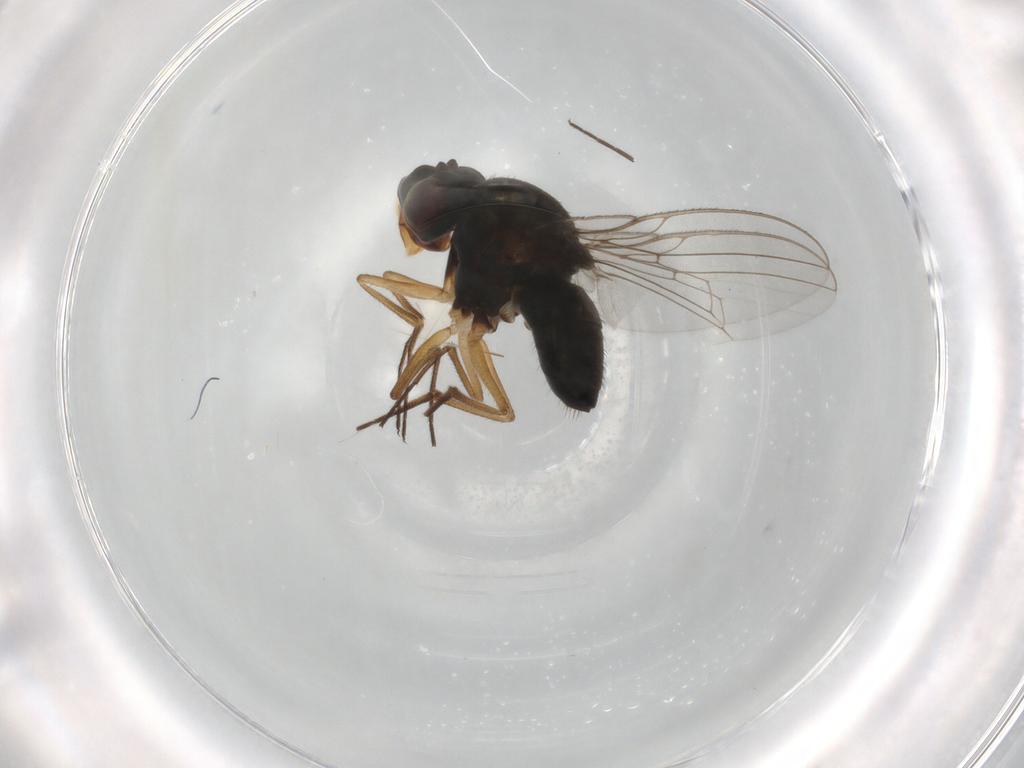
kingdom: Animalia
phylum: Arthropoda
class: Insecta
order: Diptera
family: Ephydridae
